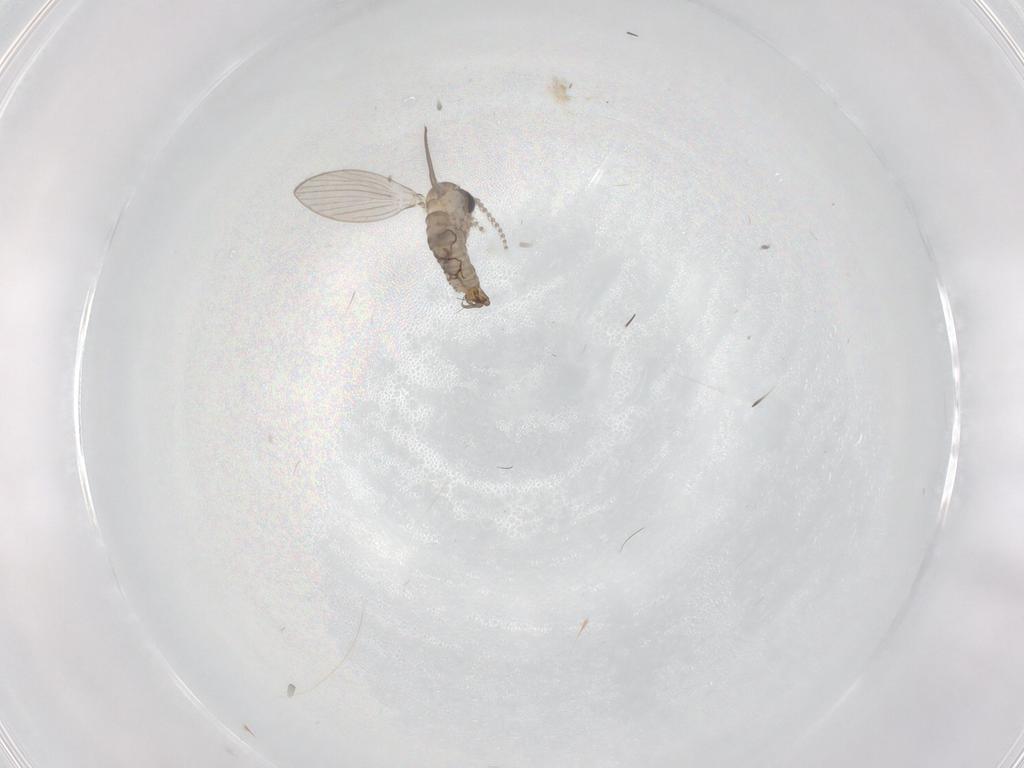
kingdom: Animalia
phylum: Arthropoda
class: Insecta
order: Diptera
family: Psychodidae
